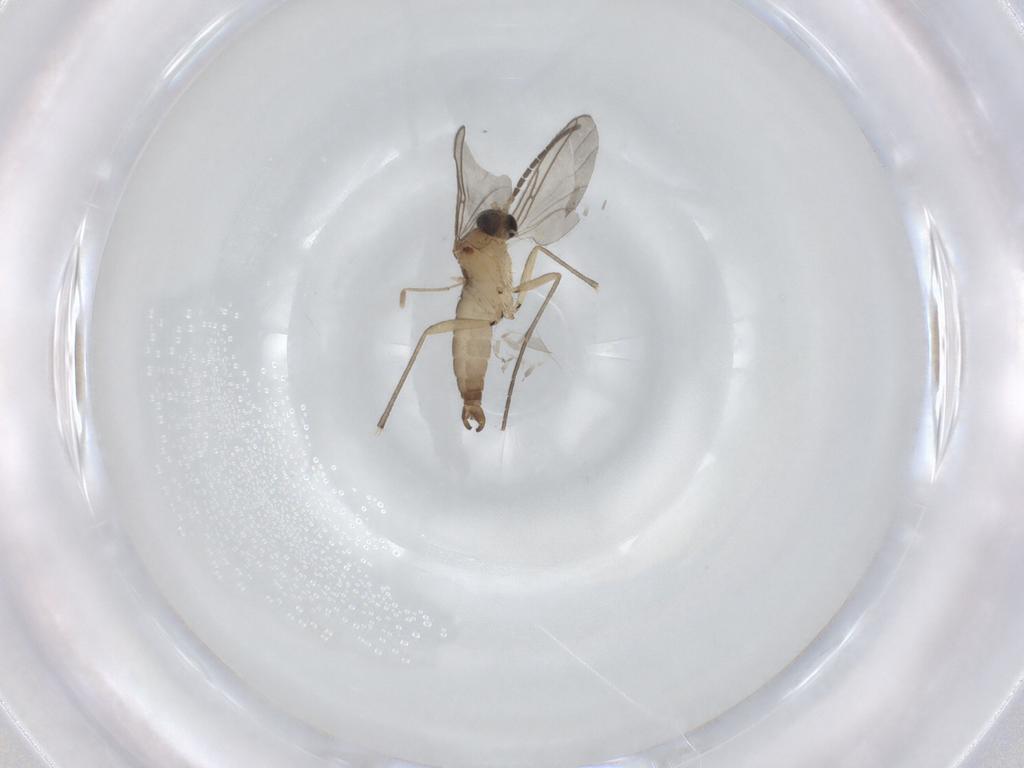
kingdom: Animalia
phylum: Arthropoda
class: Insecta
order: Diptera
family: Sciaridae
